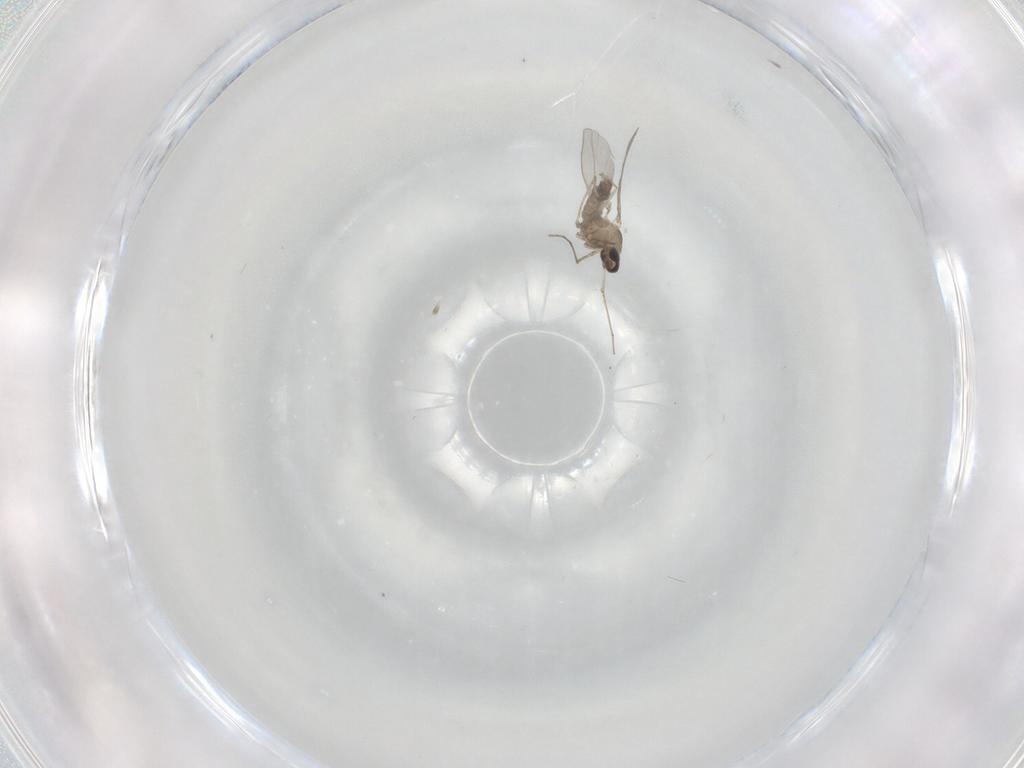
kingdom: Animalia
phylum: Arthropoda
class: Insecta
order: Diptera
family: Cecidomyiidae
